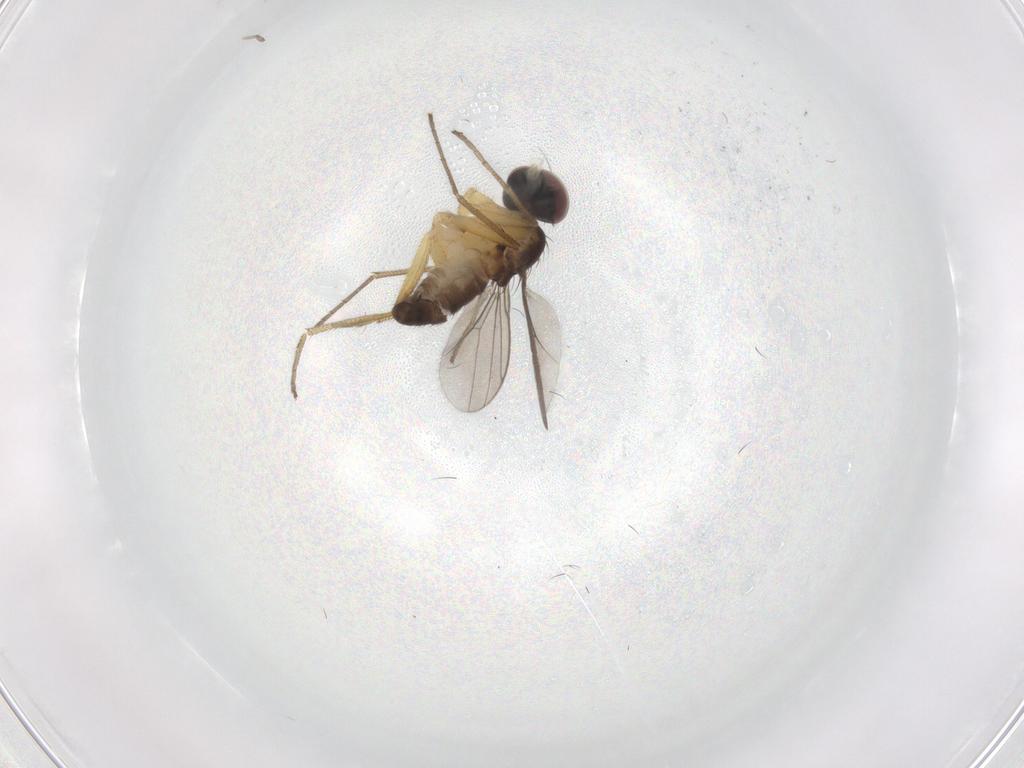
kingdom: Animalia
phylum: Arthropoda
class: Insecta
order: Diptera
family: Dolichopodidae
